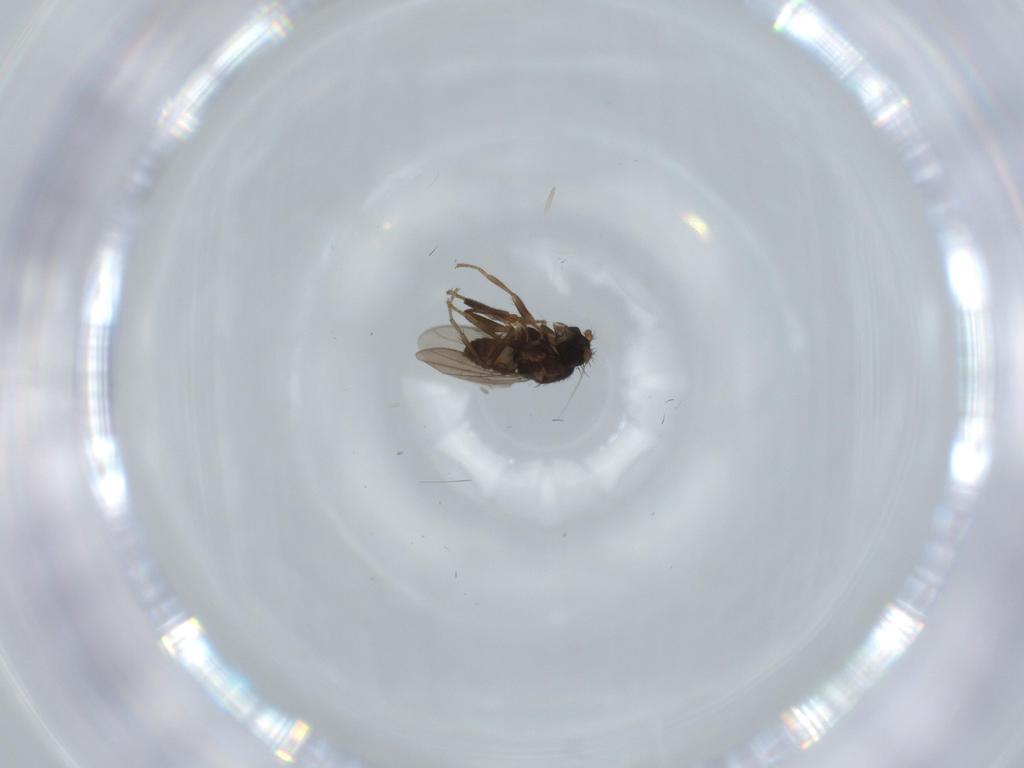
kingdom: Animalia
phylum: Arthropoda
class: Insecta
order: Diptera
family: Sphaeroceridae
